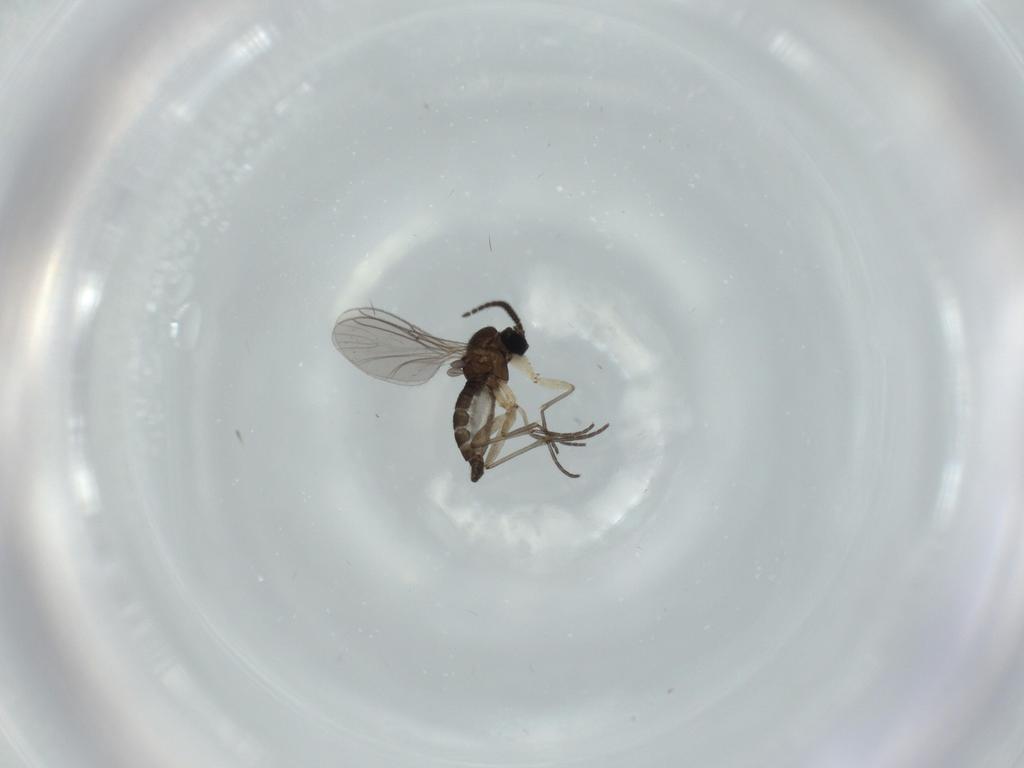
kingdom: Animalia
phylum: Arthropoda
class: Insecta
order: Diptera
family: Sciaridae
